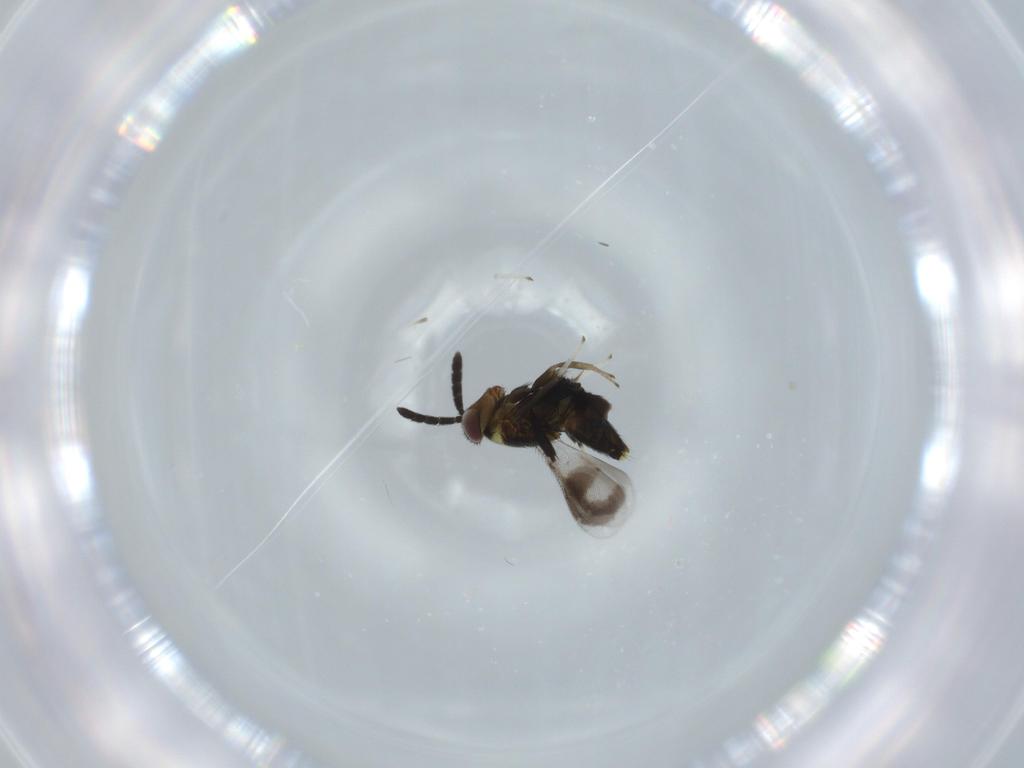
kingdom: Animalia
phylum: Arthropoda
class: Insecta
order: Hymenoptera
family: Aphelinidae
